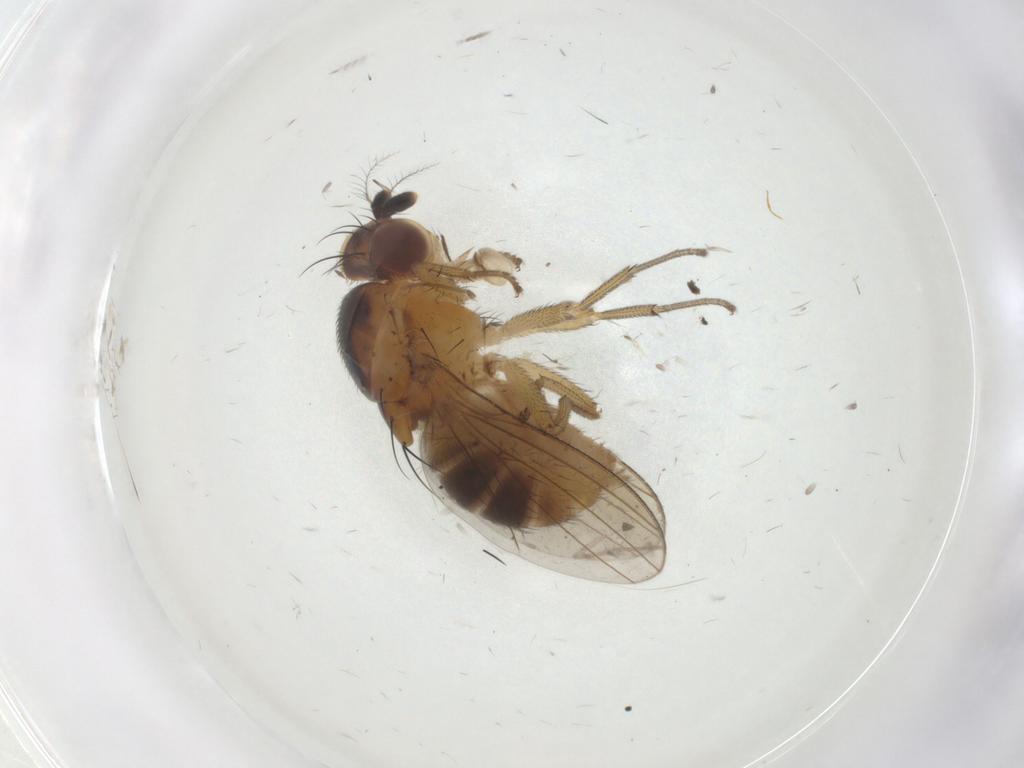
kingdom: Animalia
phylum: Arthropoda
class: Insecta
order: Diptera
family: Lauxaniidae
